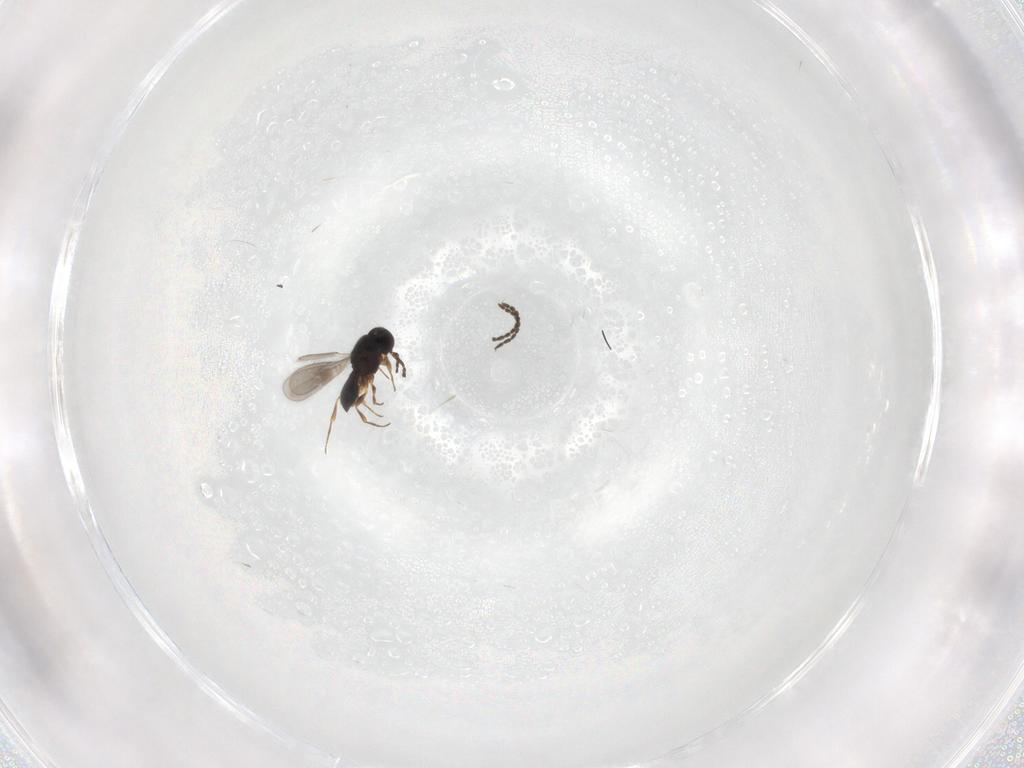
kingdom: Animalia
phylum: Arthropoda
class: Insecta
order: Hymenoptera
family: Scelionidae
